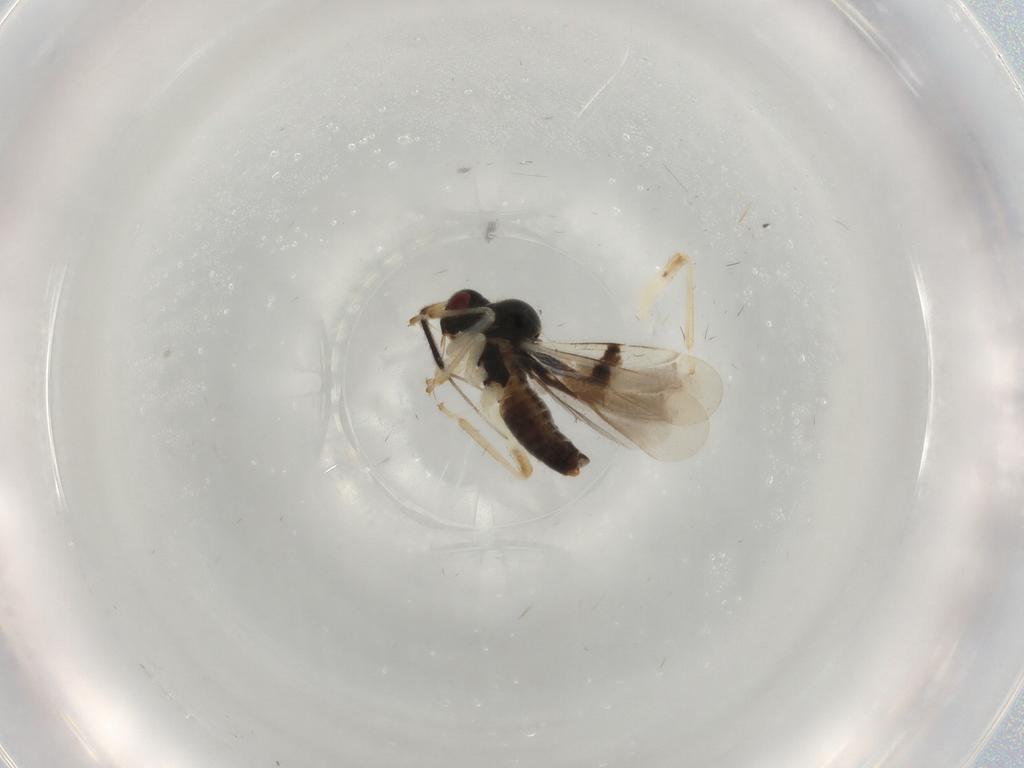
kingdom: Animalia
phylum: Arthropoda
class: Insecta
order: Hemiptera
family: Miridae
